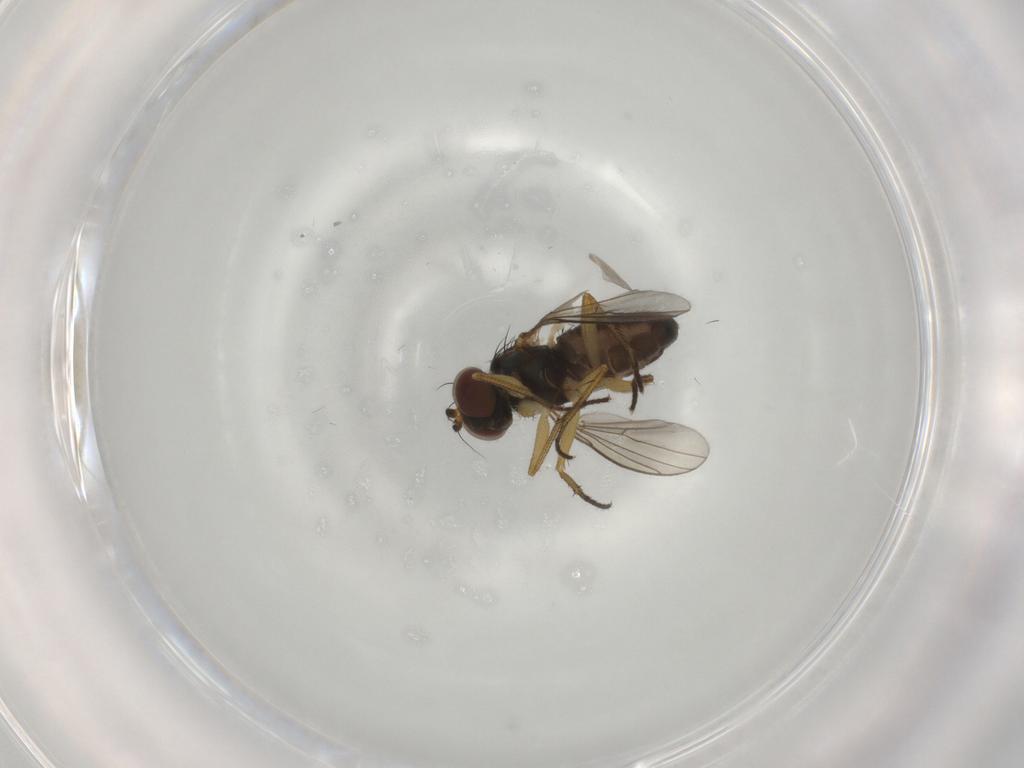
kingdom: Animalia
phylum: Arthropoda
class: Insecta
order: Diptera
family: Dolichopodidae
